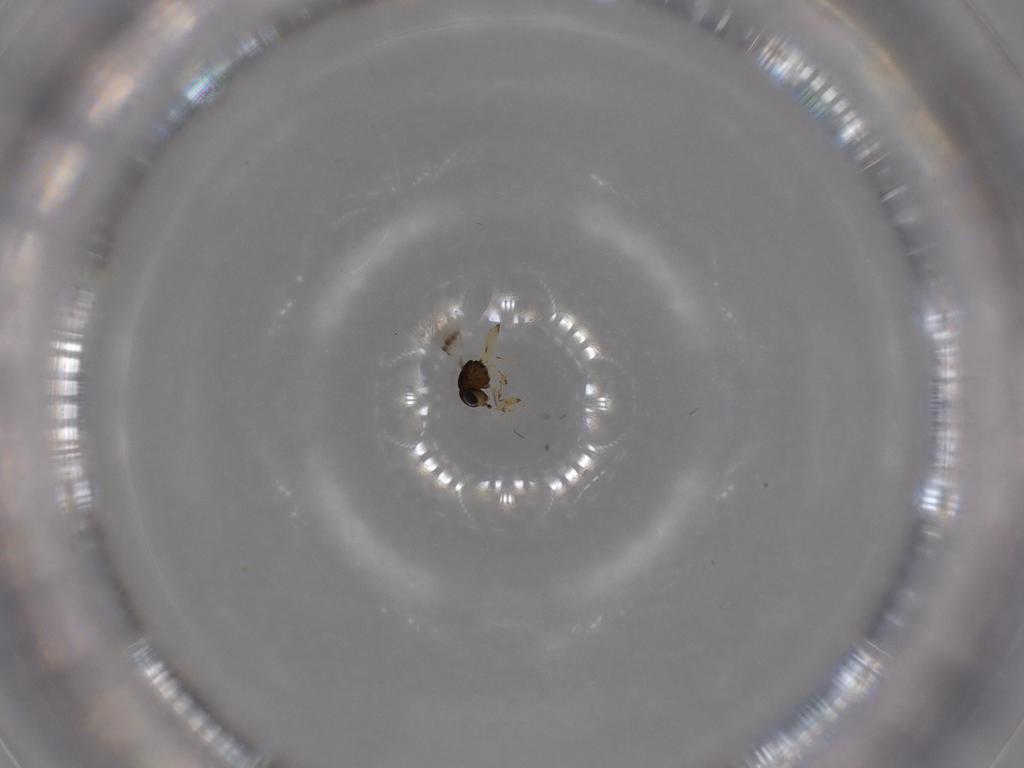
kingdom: Animalia
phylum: Arthropoda
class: Insecta
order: Hymenoptera
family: Scelionidae
